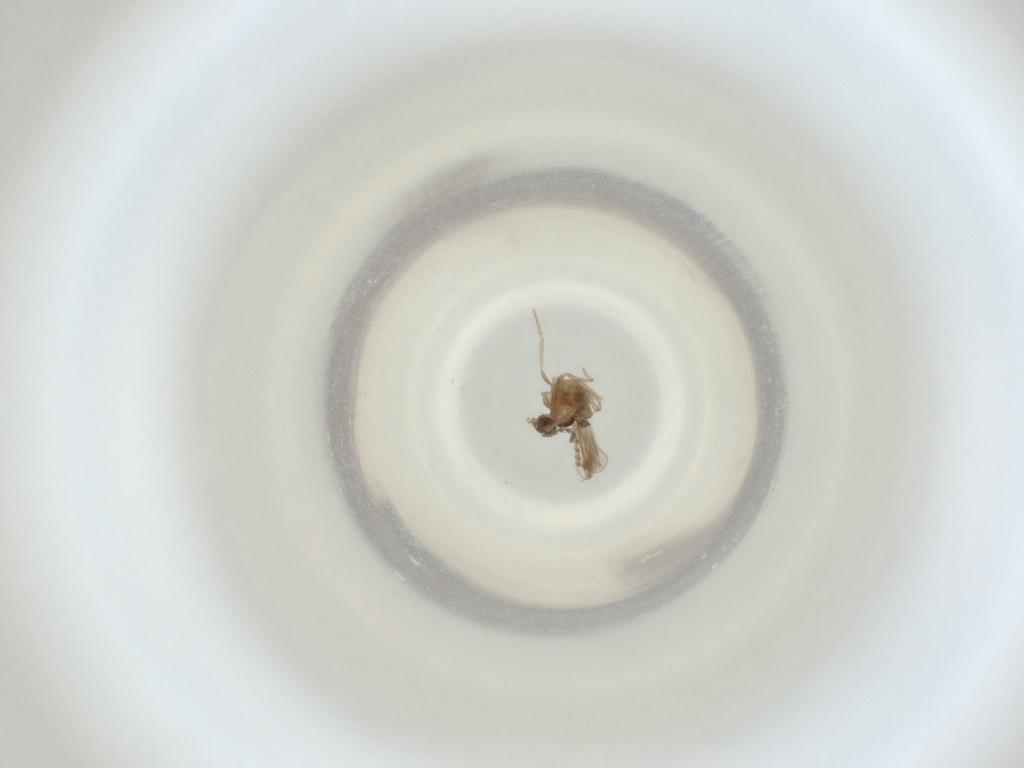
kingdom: Animalia
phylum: Arthropoda
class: Insecta
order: Diptera
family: Cecidomyiidae
